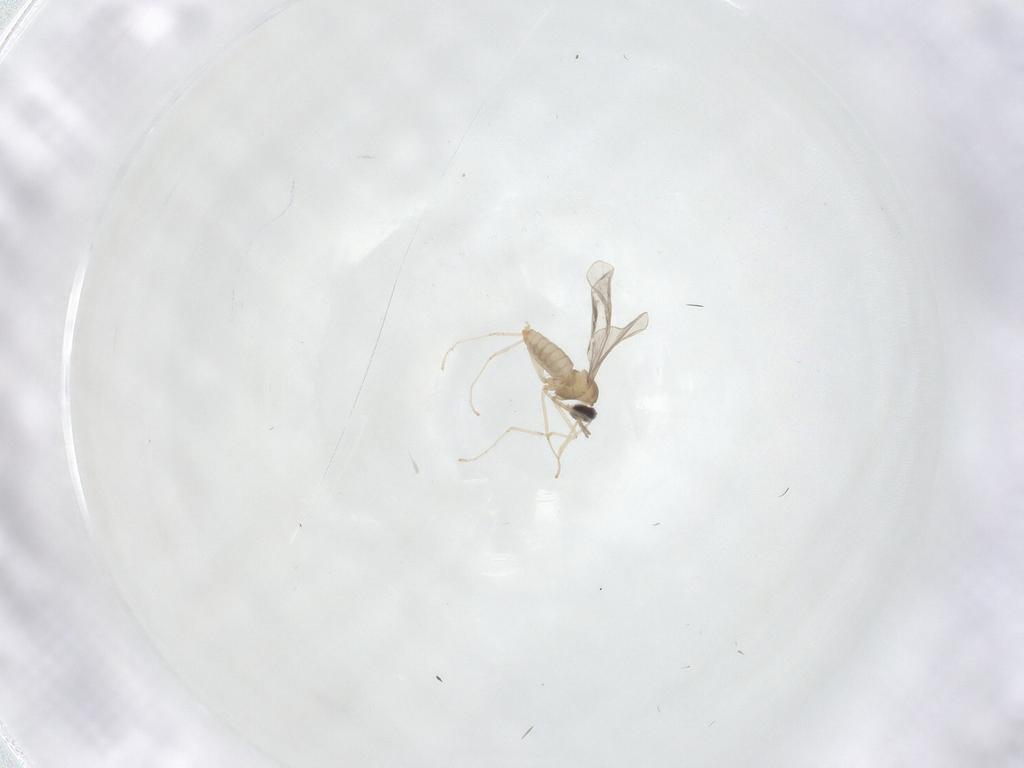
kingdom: Animalia
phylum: Arthropoda
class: Insecta
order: Diptera
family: Cecidomyiidae
